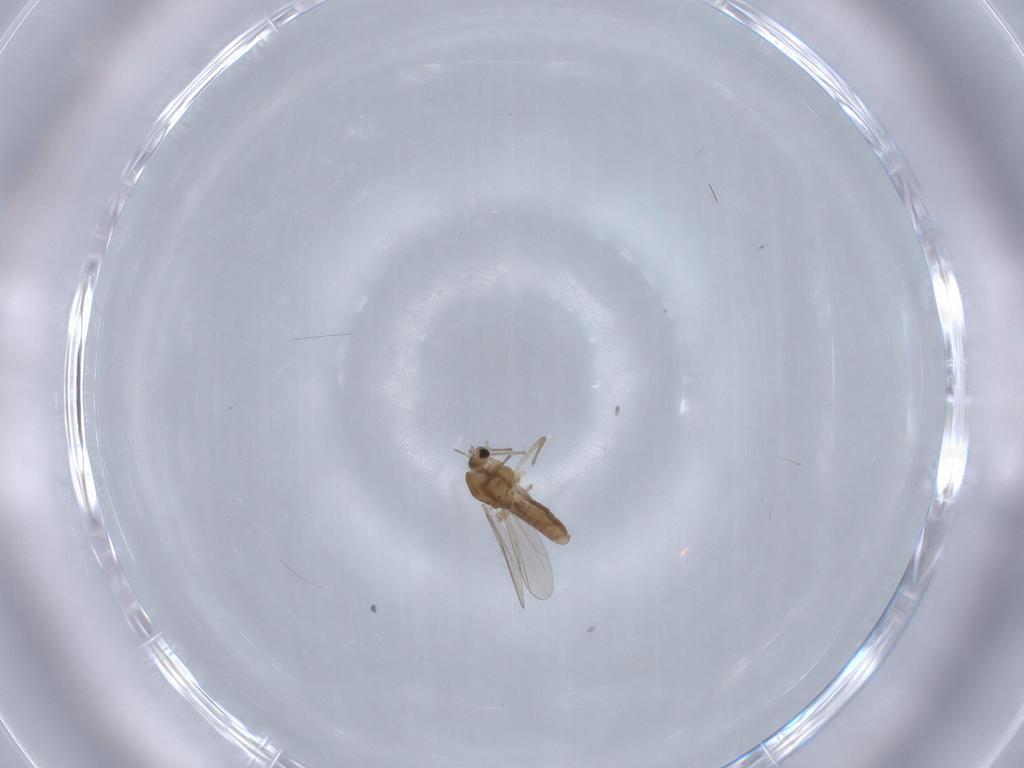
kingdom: Animalia
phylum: Arthropoda
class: Insecta
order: Diptera
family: Chironomidae
